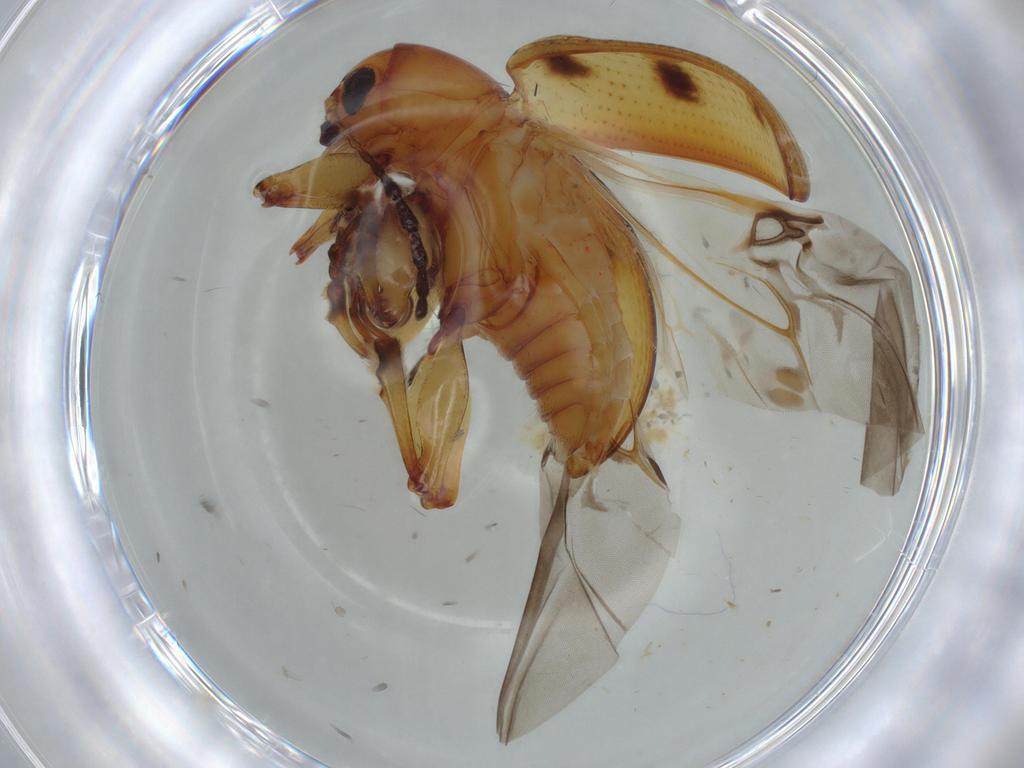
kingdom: Animalia
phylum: Arthropoda
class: Insecta
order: Coleoptera
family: Chrysomelidae
